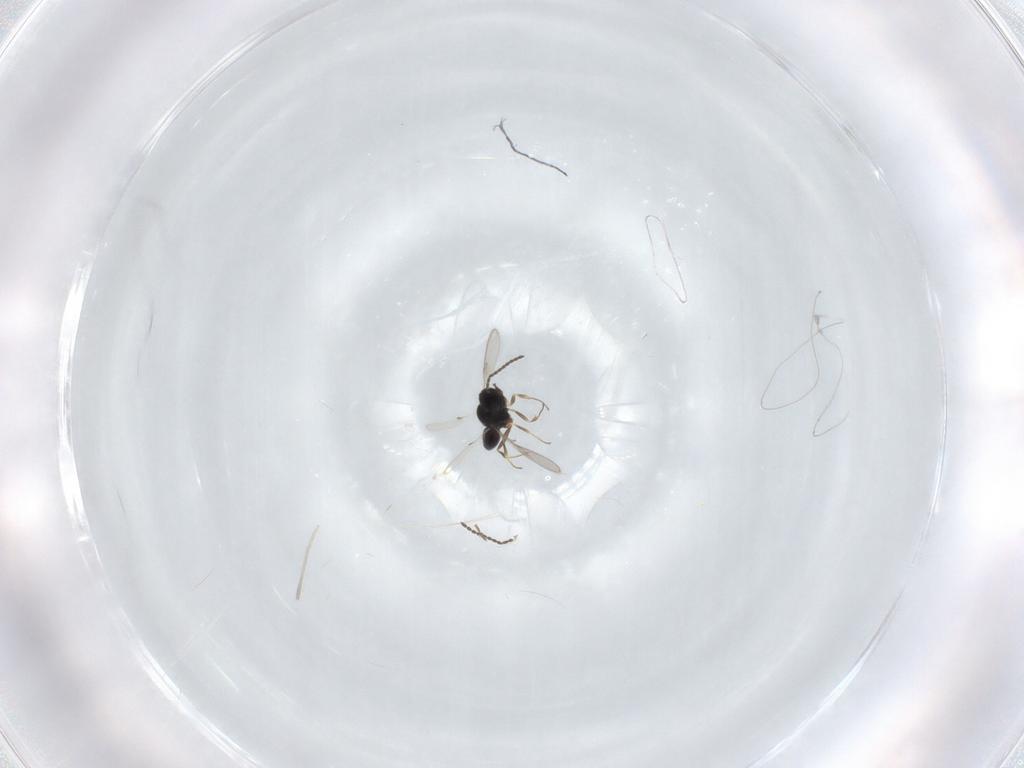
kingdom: Animalia
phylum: Arthropoda
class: Insecta
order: Hymenoptera
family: Scelionidae
